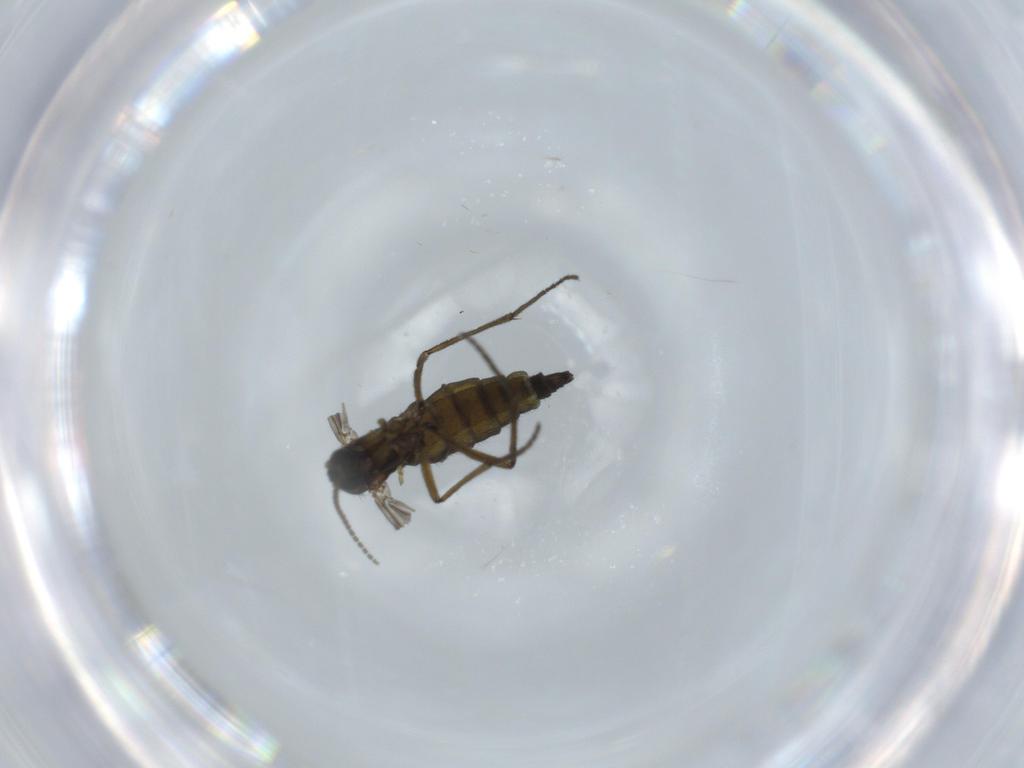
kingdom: Animalia
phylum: Arthropoda
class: Insecta
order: Diptera
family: Sciaridae
